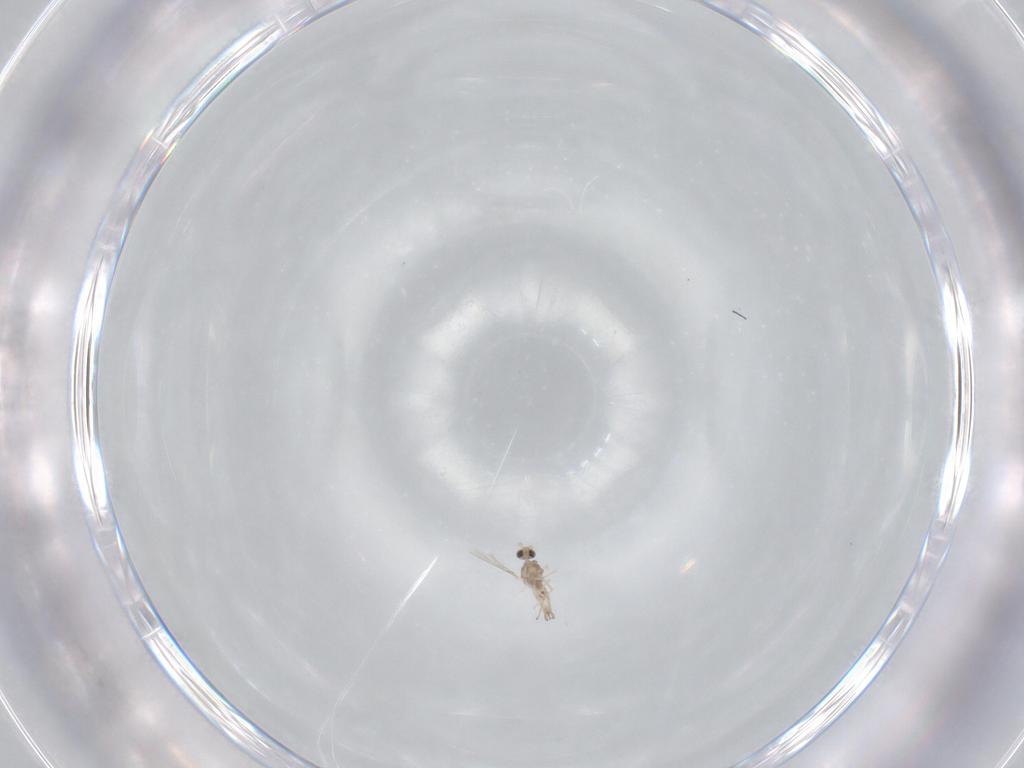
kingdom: Animalia
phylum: Arthropoda
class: Insecta
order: Diptera
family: Cecidomyiidae
